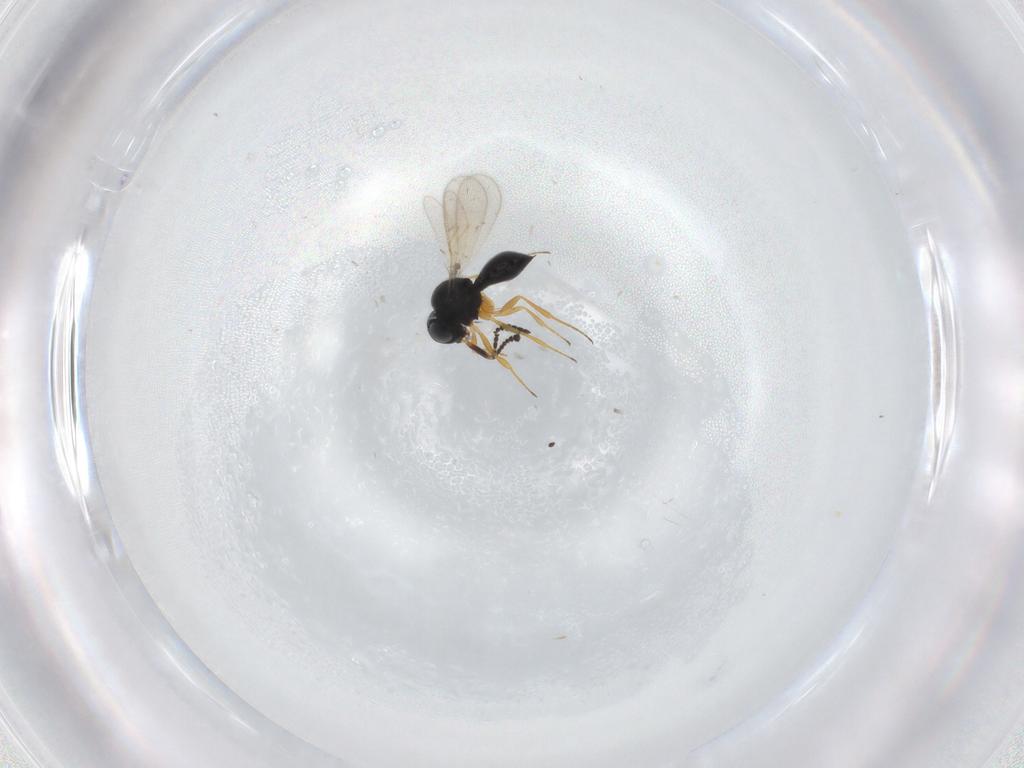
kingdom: Animalia
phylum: Arthropoda
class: Insecta
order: Hymenoptera
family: Scelionidae
